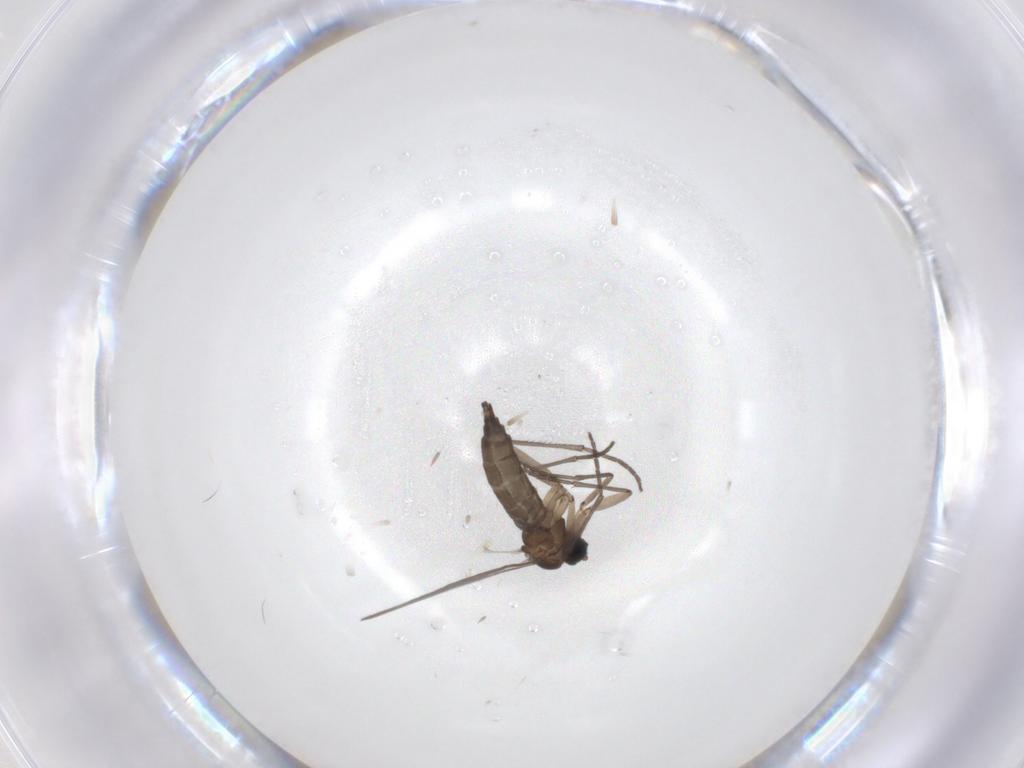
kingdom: Animalia
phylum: Arthropoda
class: Insecta
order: Diptera
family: Sciaridae
